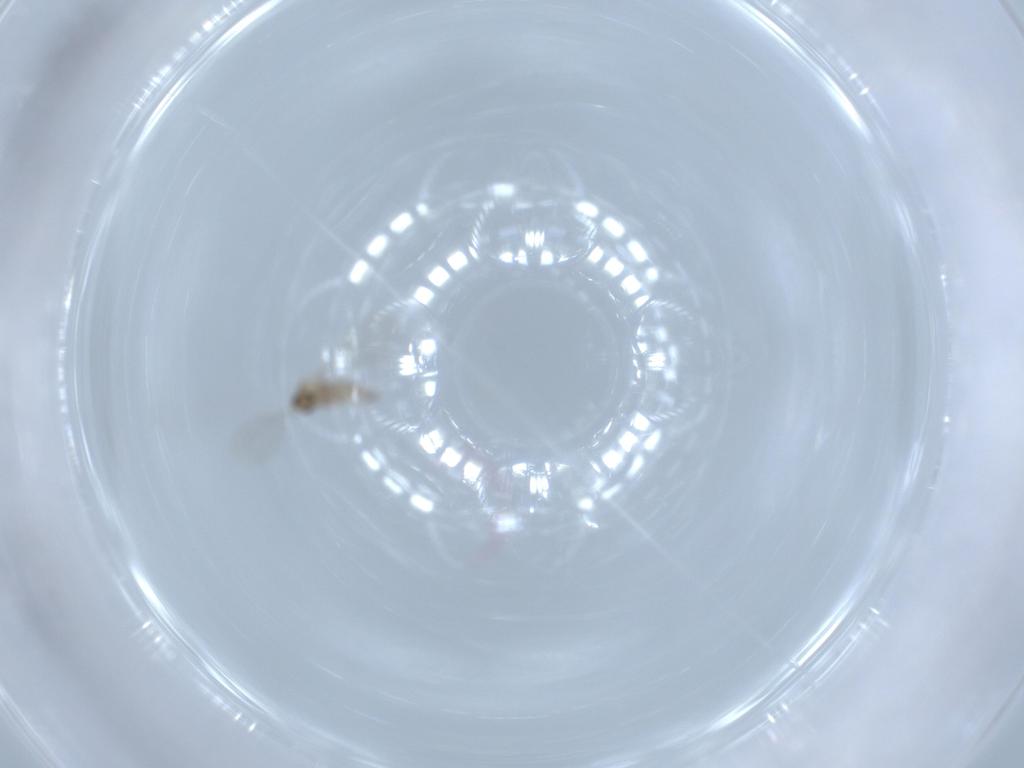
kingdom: Animalia
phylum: Arthropoda
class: Insecta
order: Diptera
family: Cecidomyiidae
